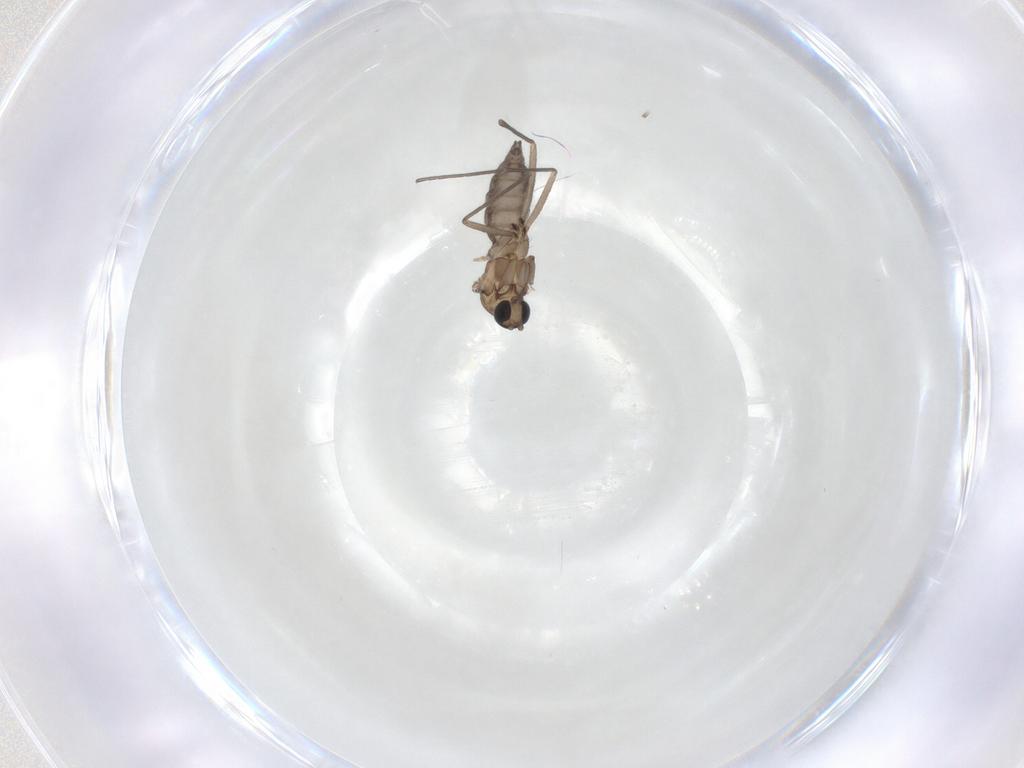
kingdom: Animalia
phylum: Arthropoda
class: Insecta
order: Diptera
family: Sciaridae
